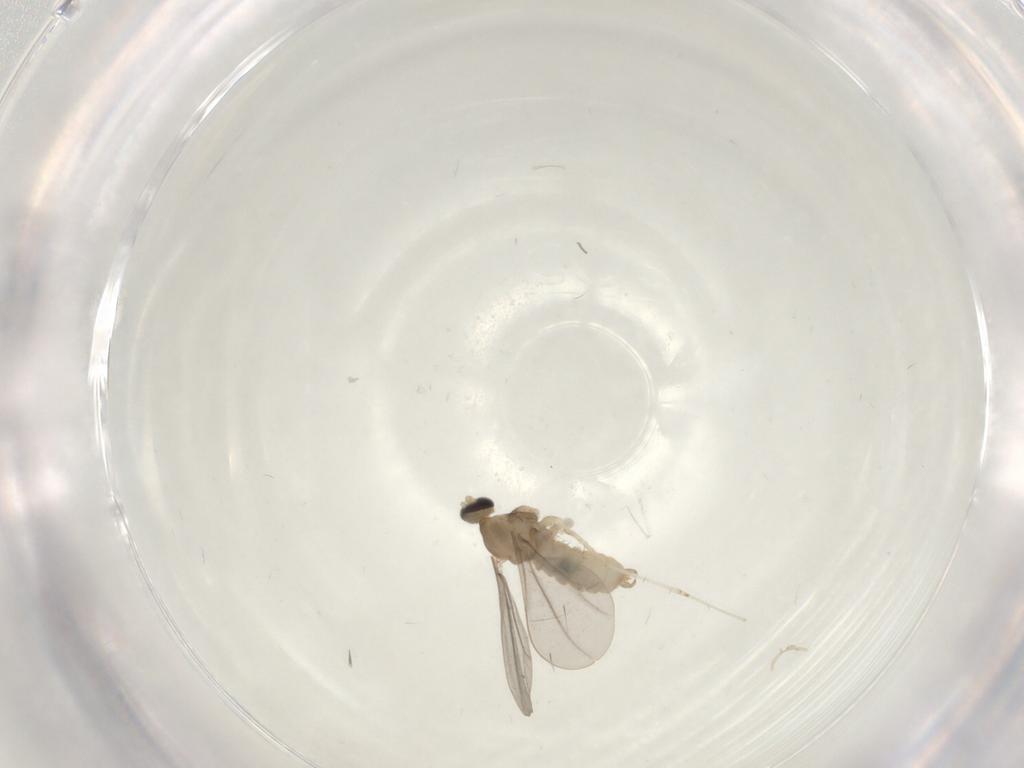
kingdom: Animalia
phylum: Arthropoda
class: Insecta
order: Diptera
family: Cecidomyiidae
